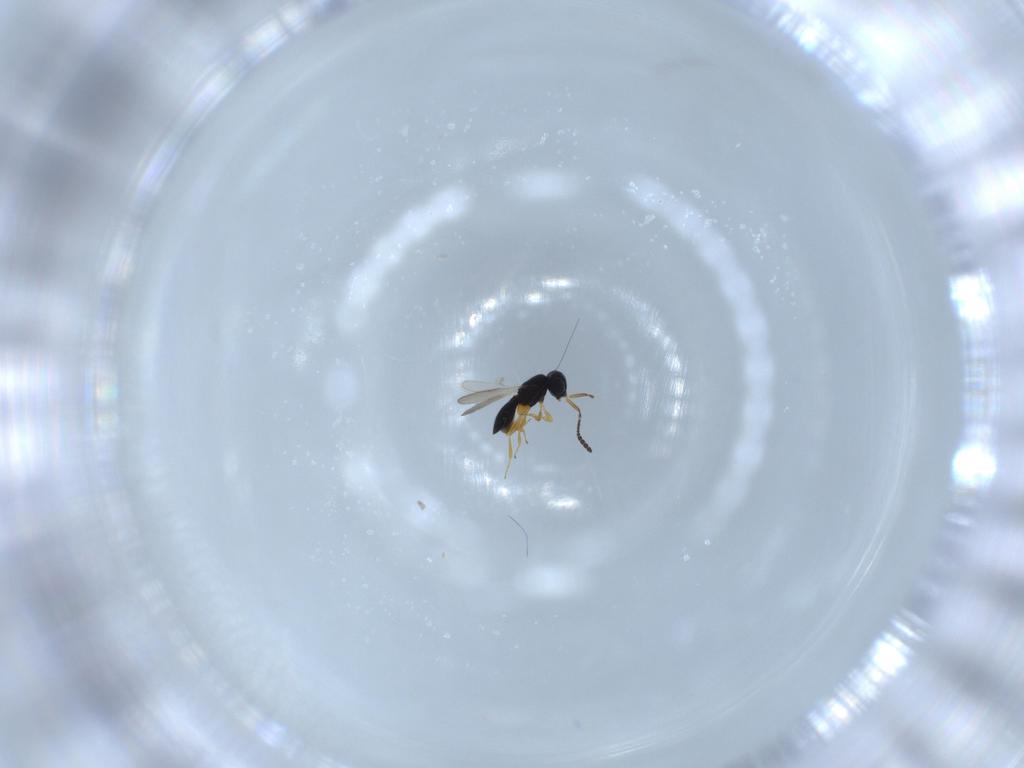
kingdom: Animalia
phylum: Arthropoda
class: Insecta
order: Hymenoptera
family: Scelionidae
